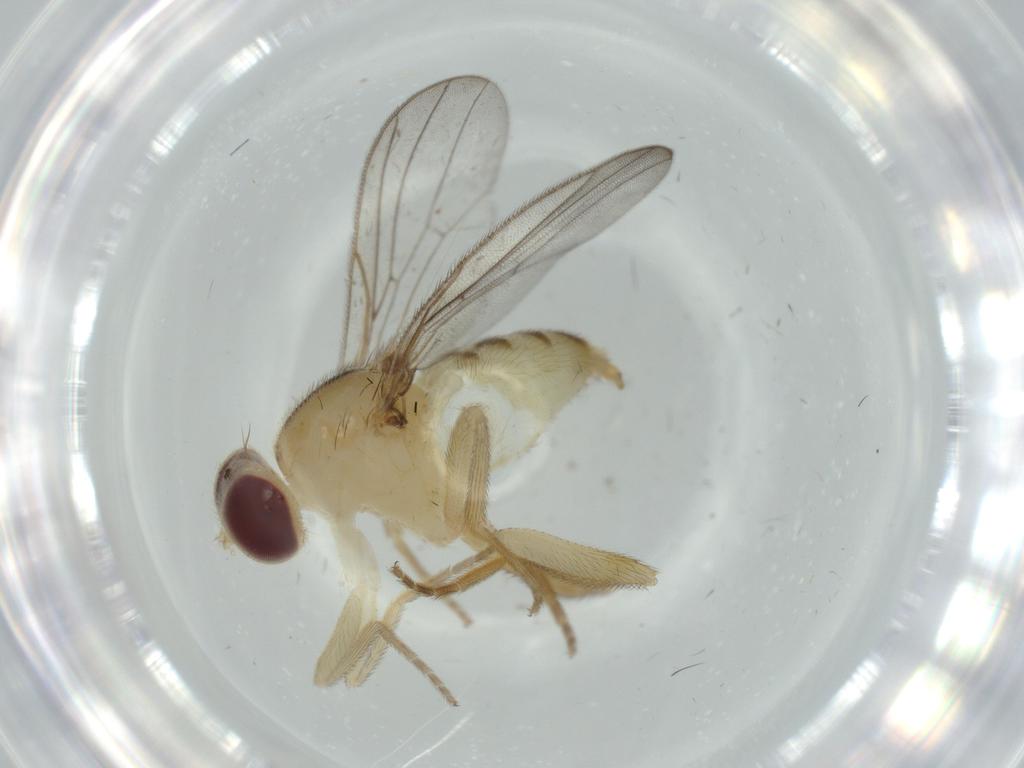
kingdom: Animalia
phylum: Arthropoda
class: Insecta
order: Diptera
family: Chloropidae
